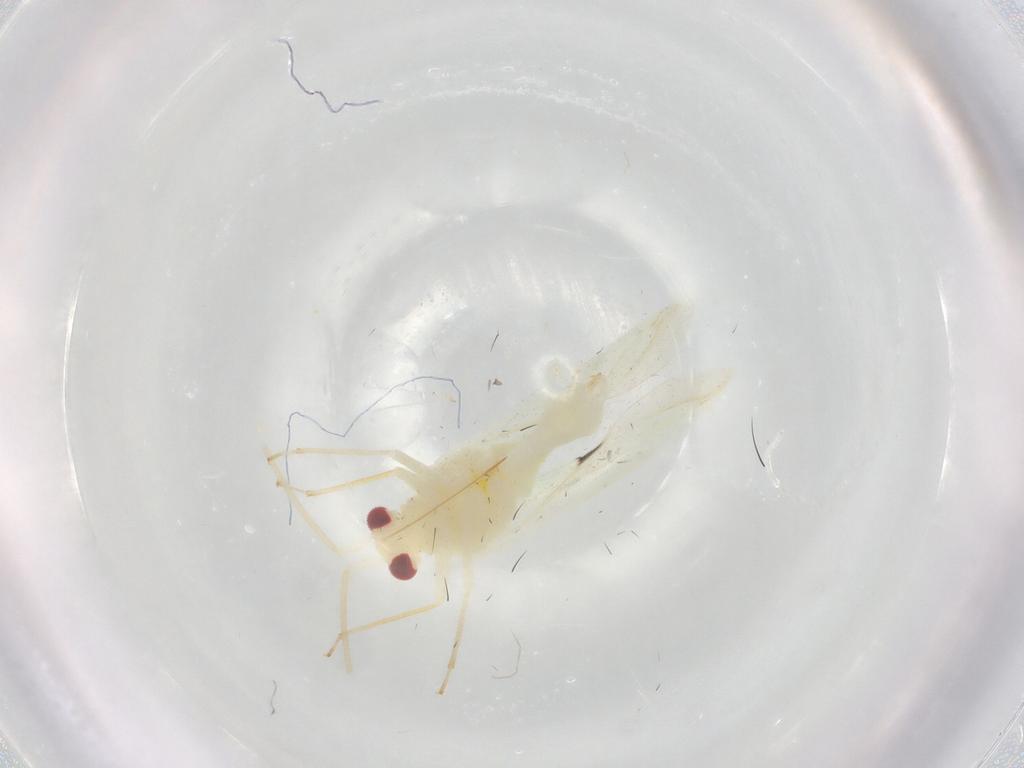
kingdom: Animalia
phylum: Arthropoda
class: Insecta
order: Hemiptera
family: Miridae
